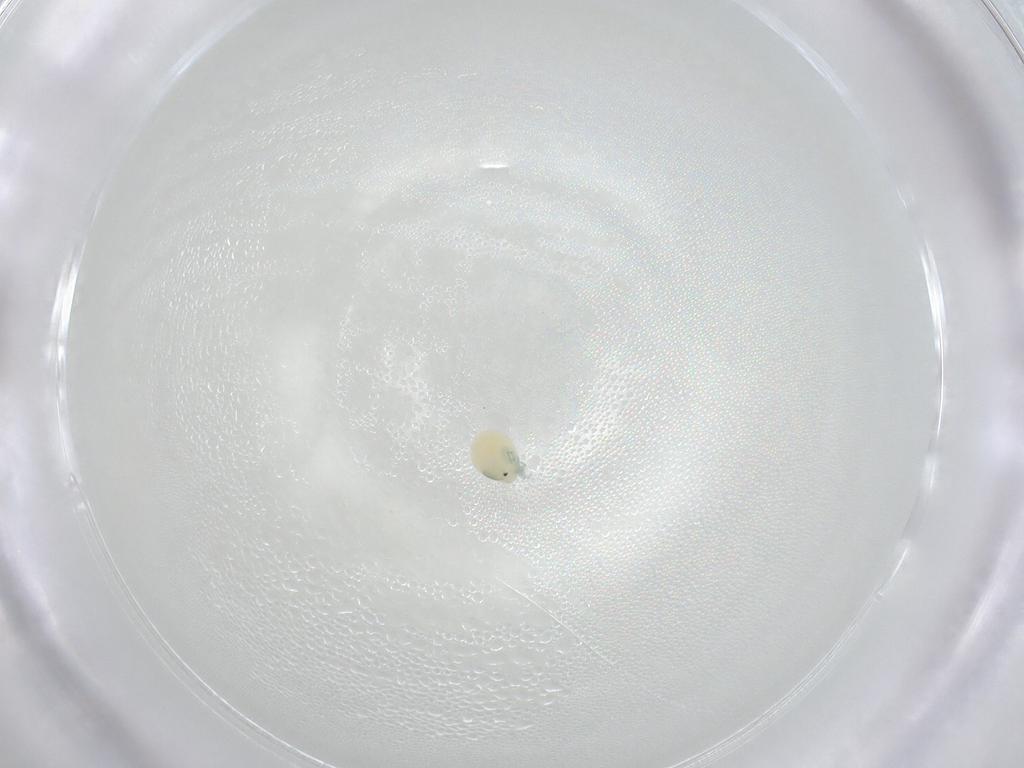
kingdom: Animalia
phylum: Arthropoda
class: Arachnida
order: Trombidiformes
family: Arrenuridae
